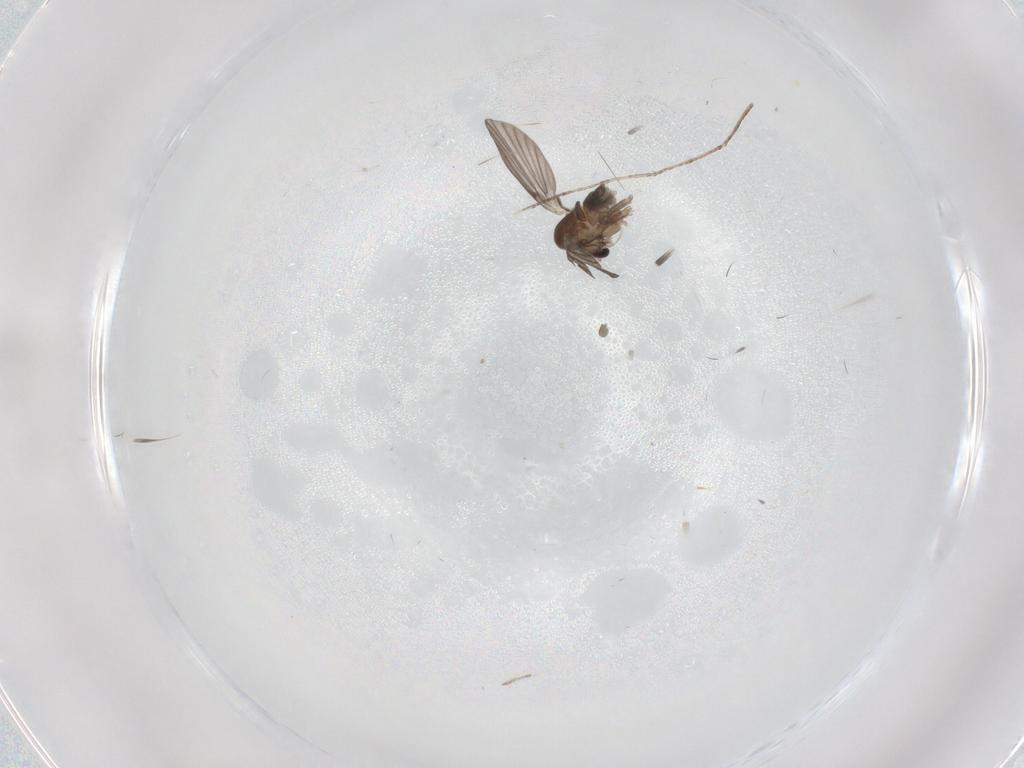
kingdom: Animalia
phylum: Arthropoda
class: Insecta
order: Diptera
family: Stratiomyidae
